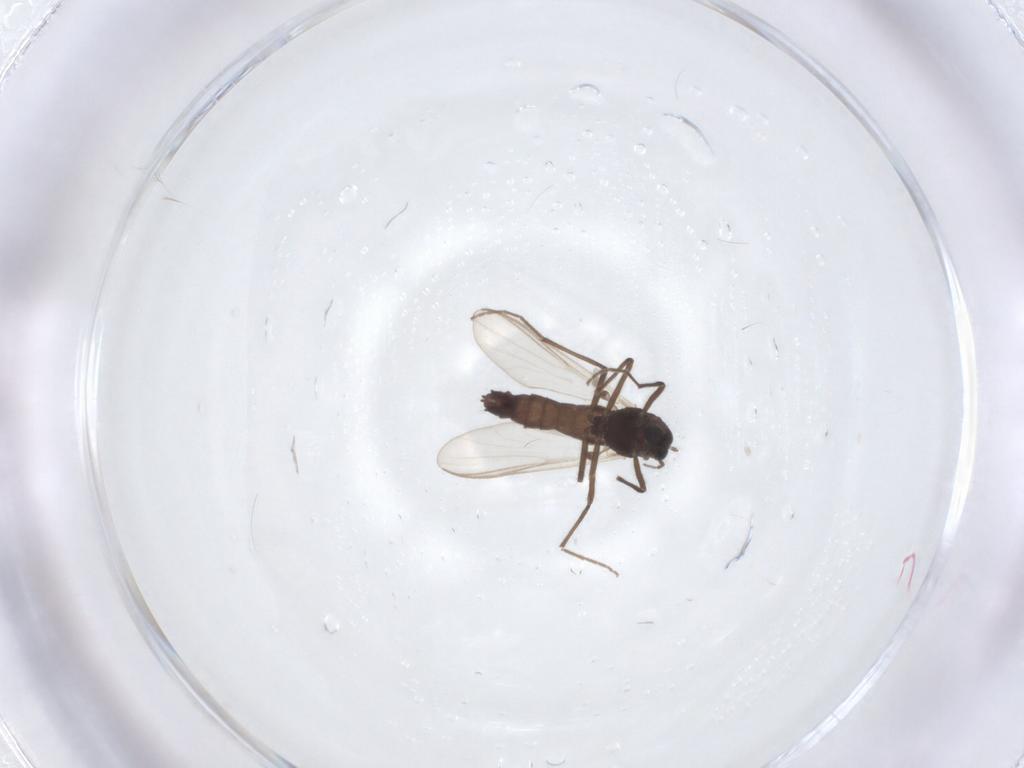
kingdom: Animalia
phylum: Arthropoda
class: Insecta
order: Diptera
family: Chironomidae
